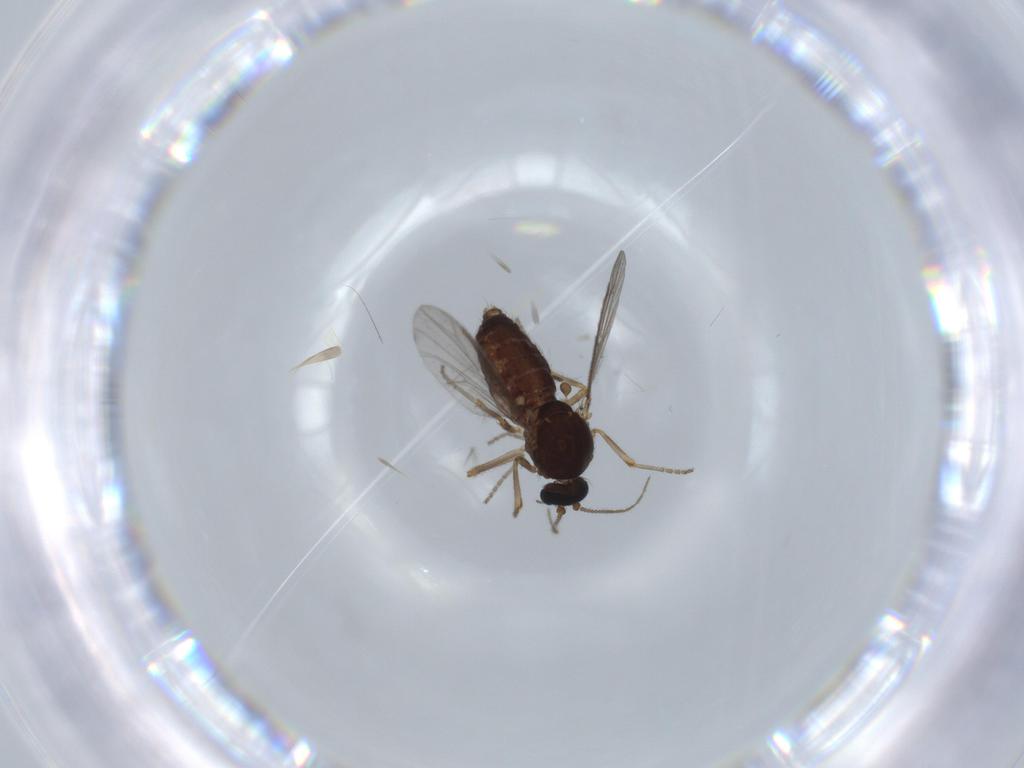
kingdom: Animalia
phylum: Arthropoda
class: Insecta
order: Diptera
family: Ceratopogonidae
